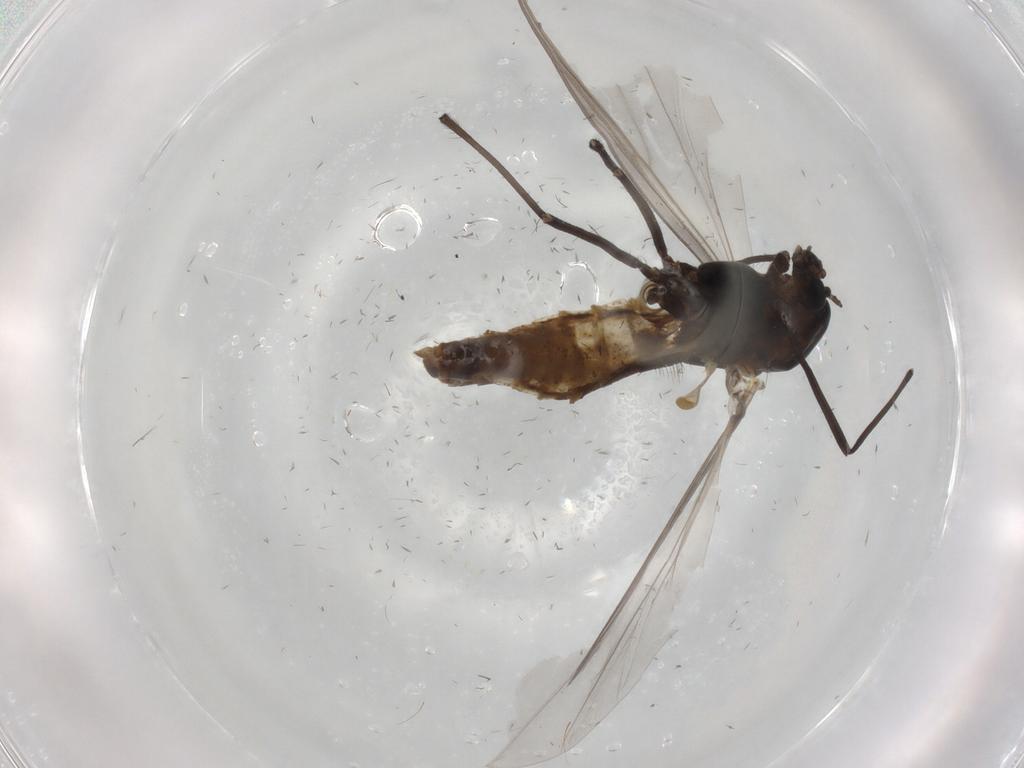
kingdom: Animalia
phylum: Arthropoda
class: Insecta
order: Diptera
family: Chironomidae
